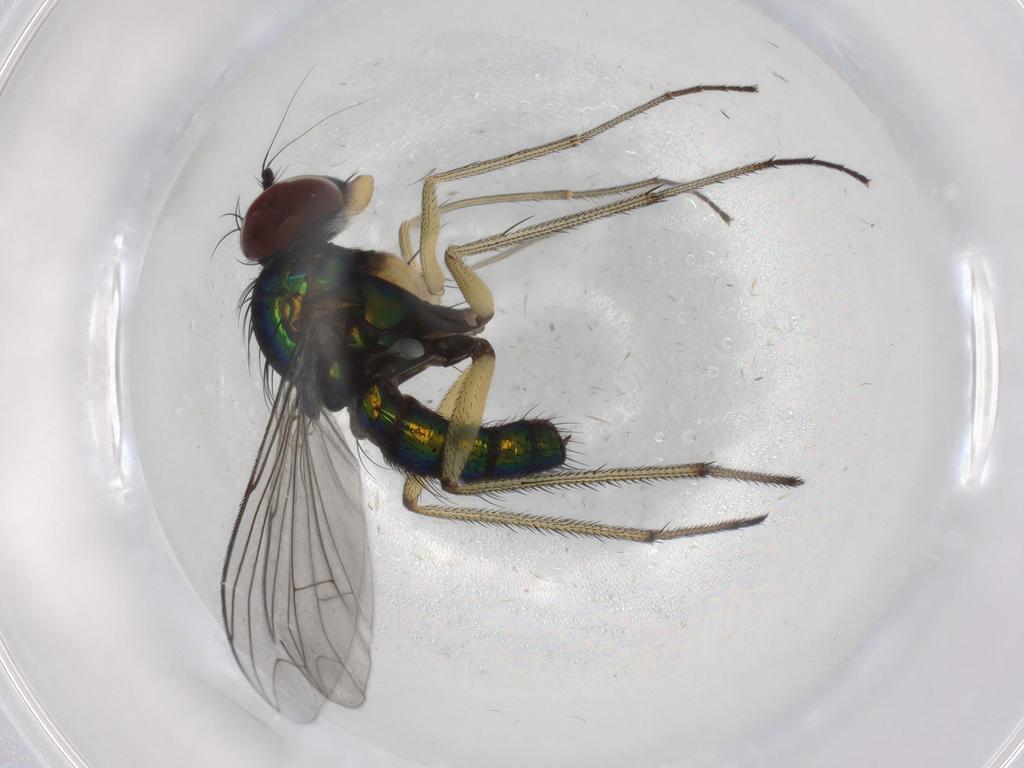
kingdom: Animalia
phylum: Arthropoda
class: Insecta
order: Diptera
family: Dolichopodidae
